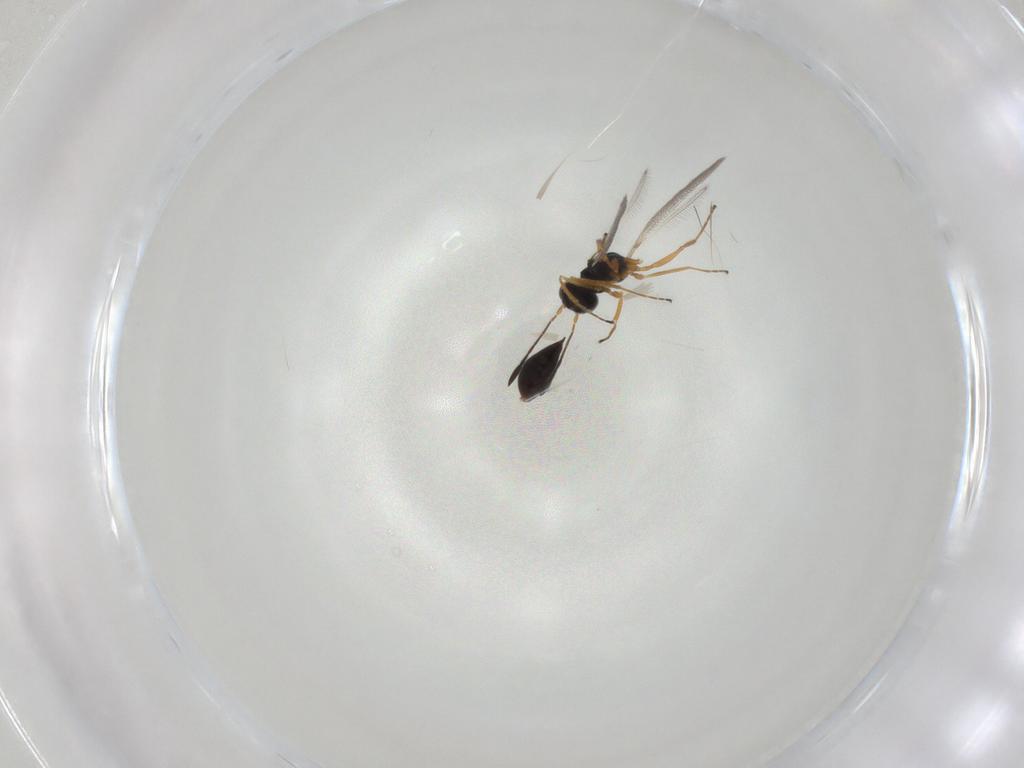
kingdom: Animalia
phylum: Arthropoda
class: Insecta
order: Hymenoptera
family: Mymaridae
